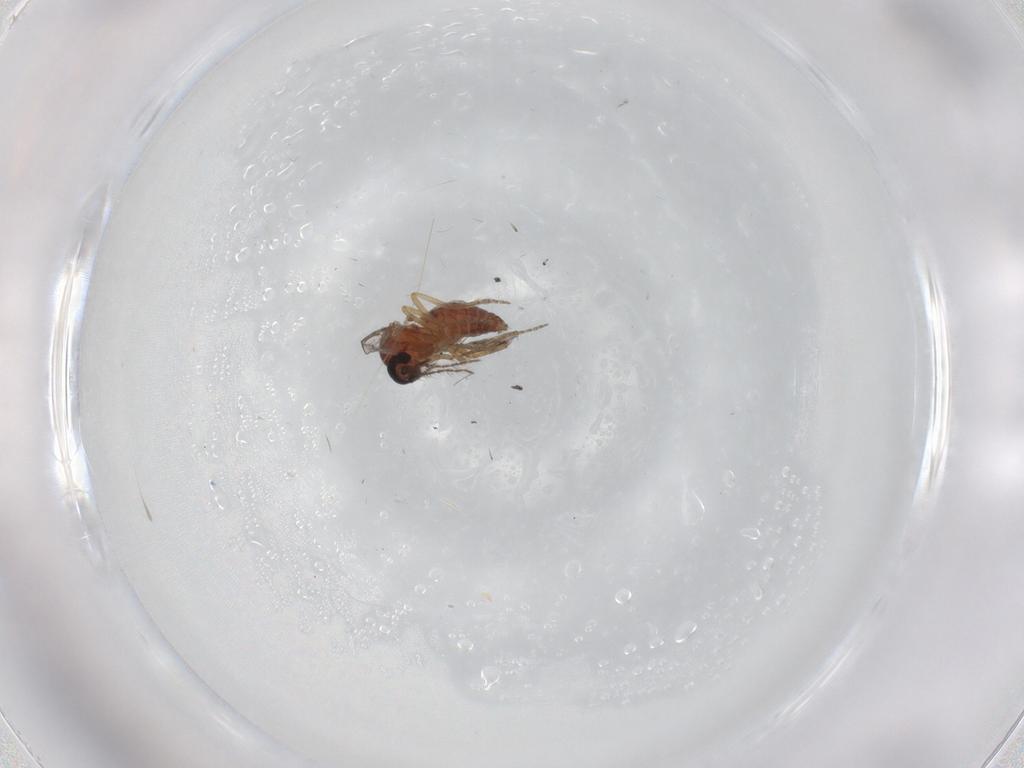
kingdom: Animalia
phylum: Arthropoda
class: Insecta
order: Diptera
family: Ceratopogonidae
